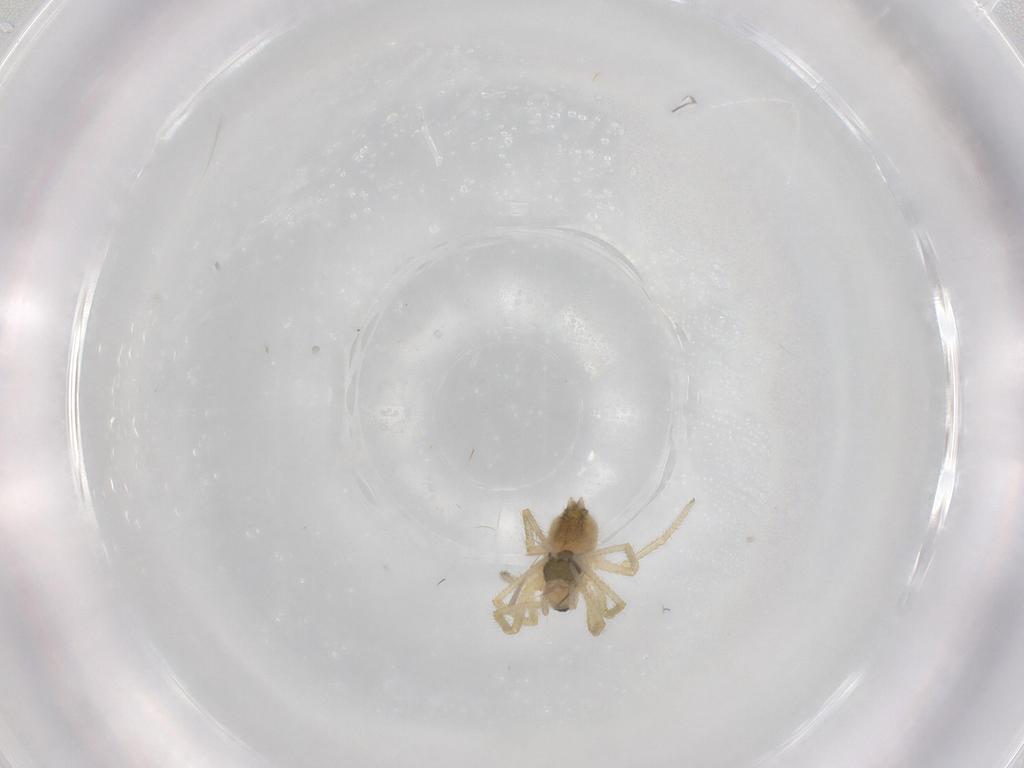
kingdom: Animalia
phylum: Arthropoda
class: Arachnida
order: Araneae
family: Linyphiidae
